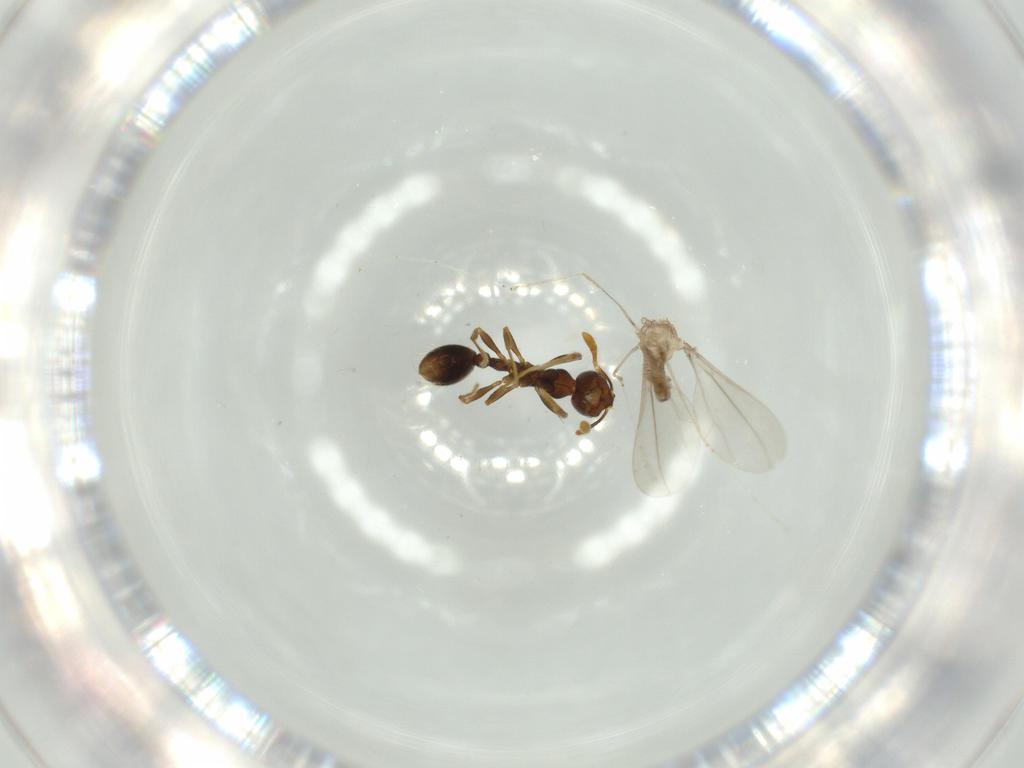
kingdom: Animalia
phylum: Arthropoda
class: Insecta
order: Diptera
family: Cecidomyiidae
